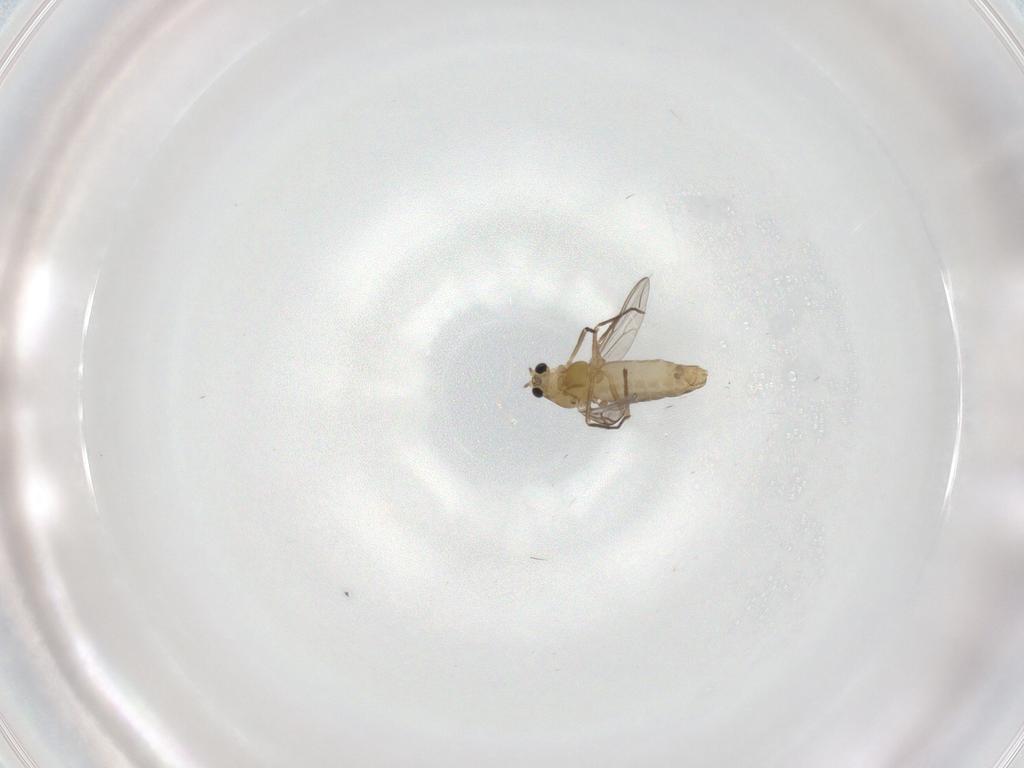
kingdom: Animalia
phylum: Arthropoda
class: Insecta
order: Diptera
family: Chironomidae
